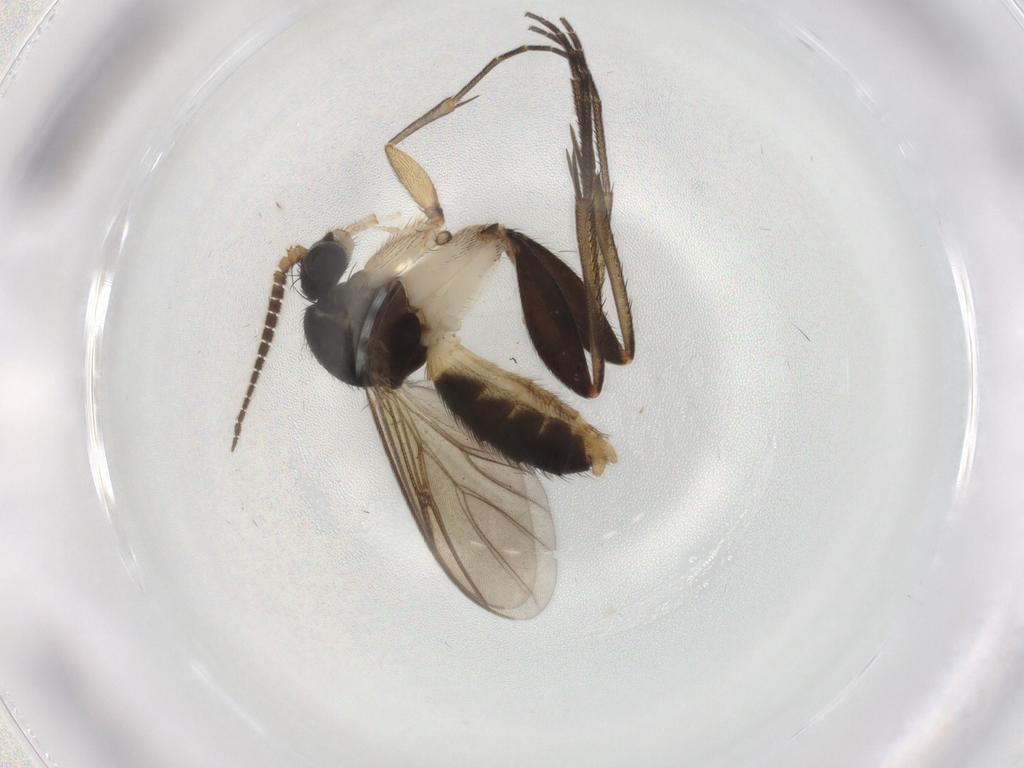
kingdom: Animalia
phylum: Arthropoda
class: Insecta
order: Diptera
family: Mycetophilidae
